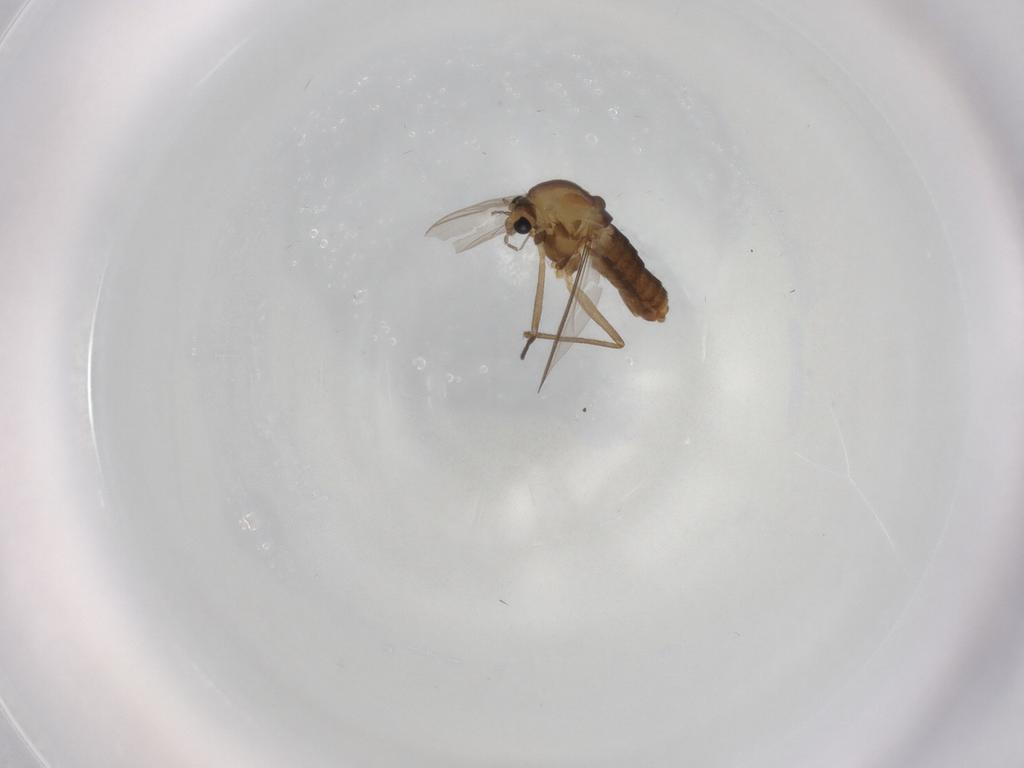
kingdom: Animalia
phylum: Arthropoda
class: Insecta
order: Diptera
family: Chironomidae
